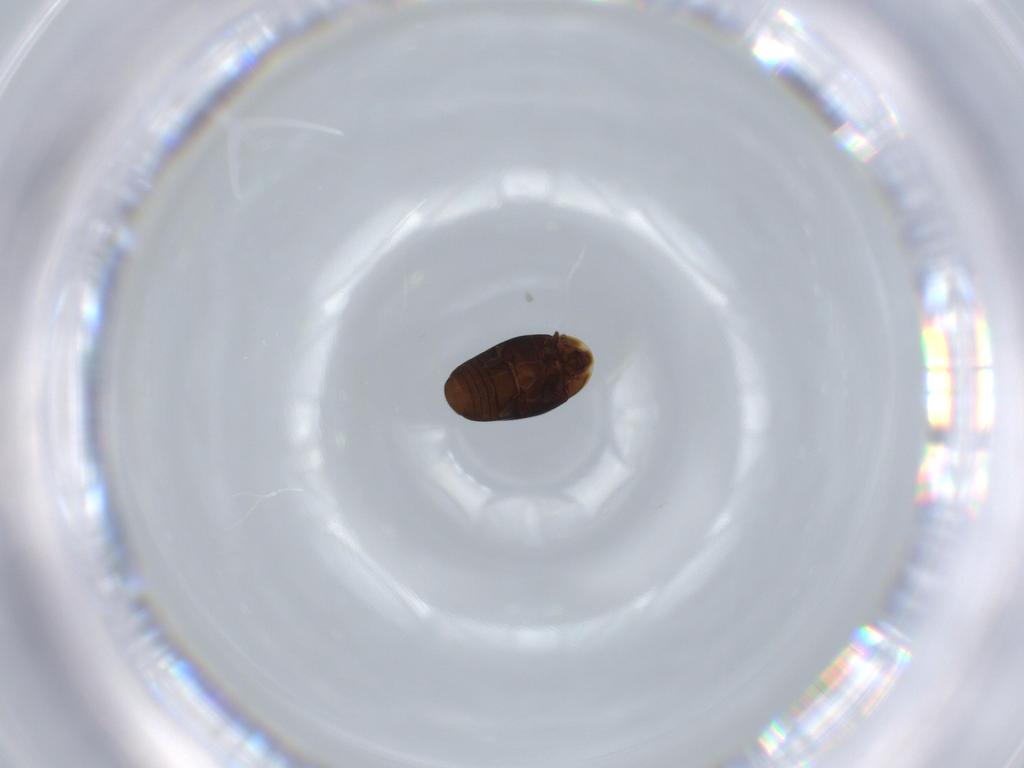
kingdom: Animalia
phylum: Arthropoda
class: Insecta
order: Coleoptera
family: Corylophidae
